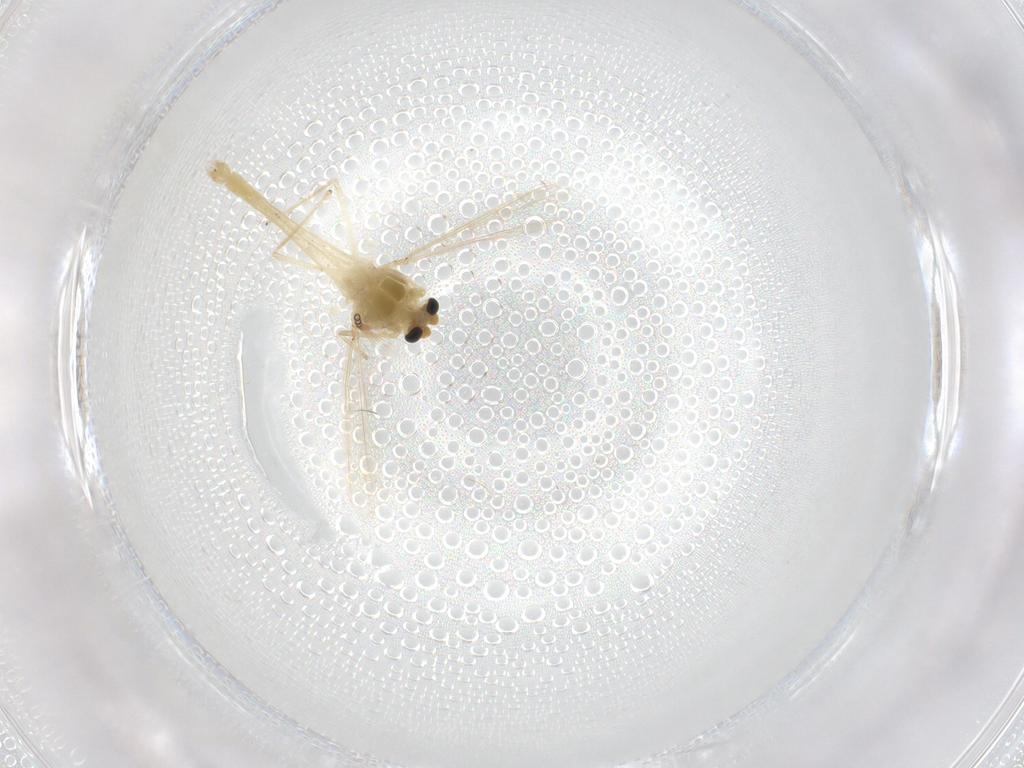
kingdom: Animalia
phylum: Arthropoda
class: Insecta
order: Diptera
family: Chironomidae
